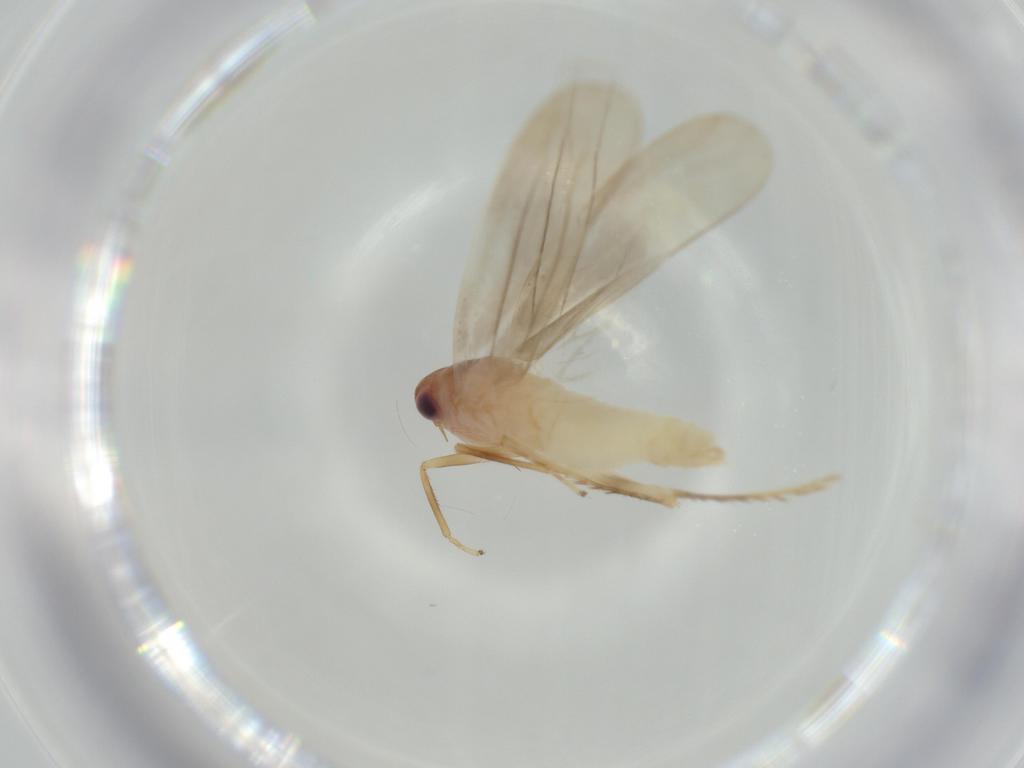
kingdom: Animalia
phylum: Arthropoda
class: Insecta
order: Hemiptera
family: Cicadellidae
